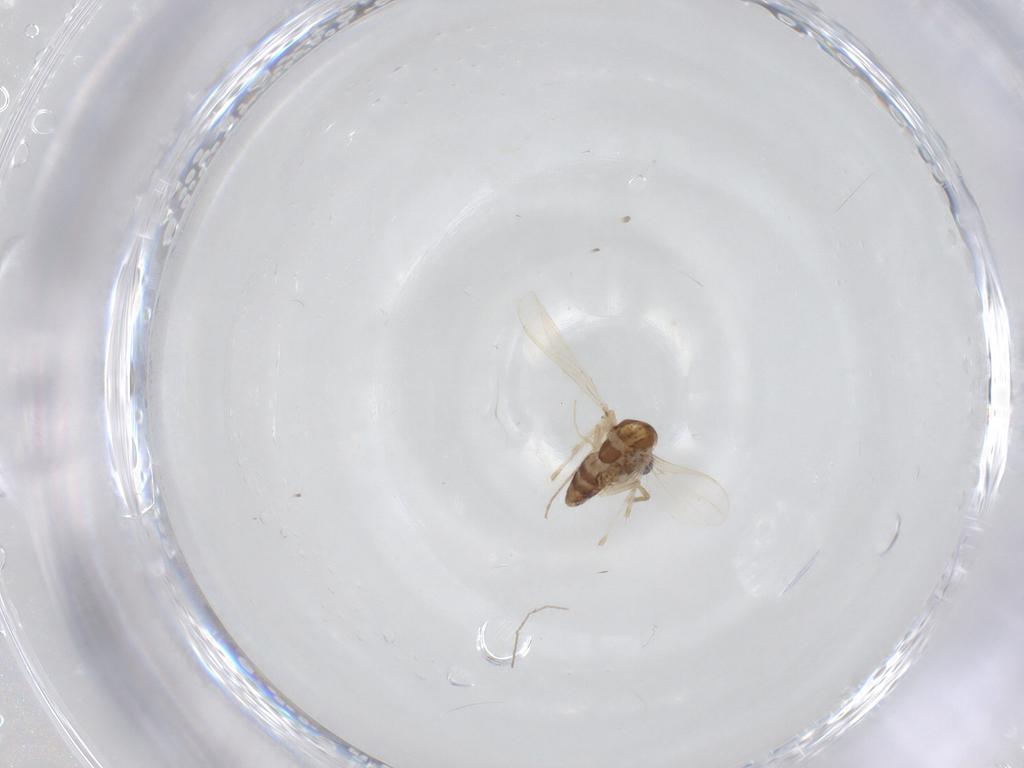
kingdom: Animalia
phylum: Arthropoda
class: Insecta
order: Diptera
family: Chironomidae
